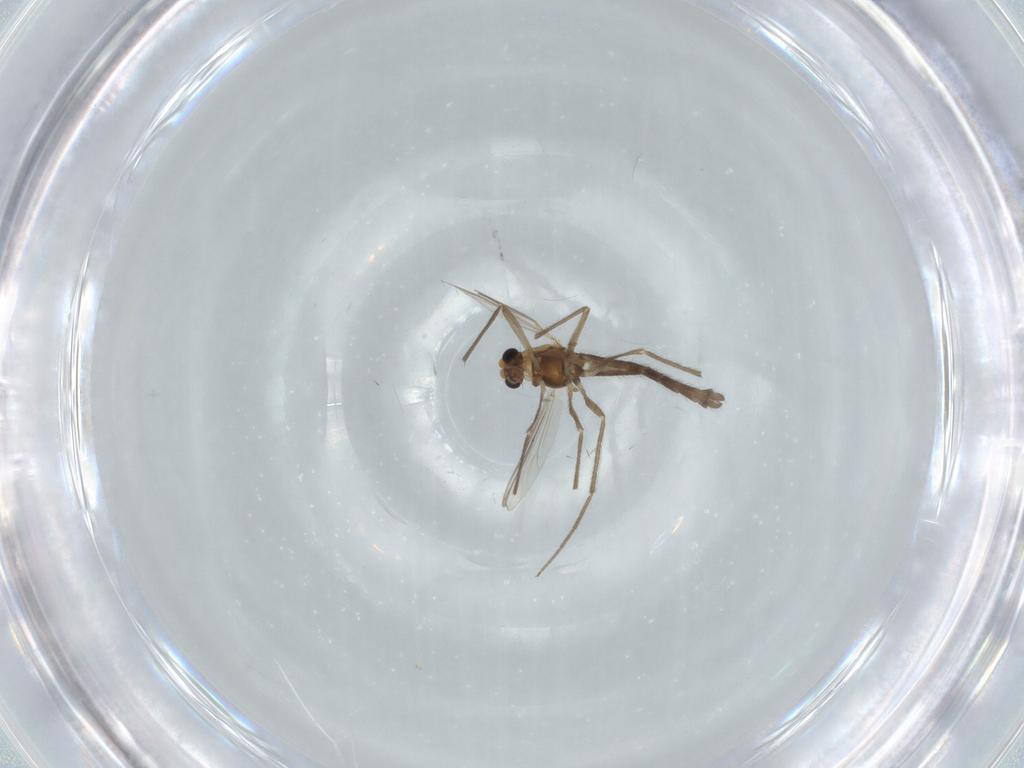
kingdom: Animalia
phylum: Arthropoda
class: Insecta
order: Diptera
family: Chironomidae
